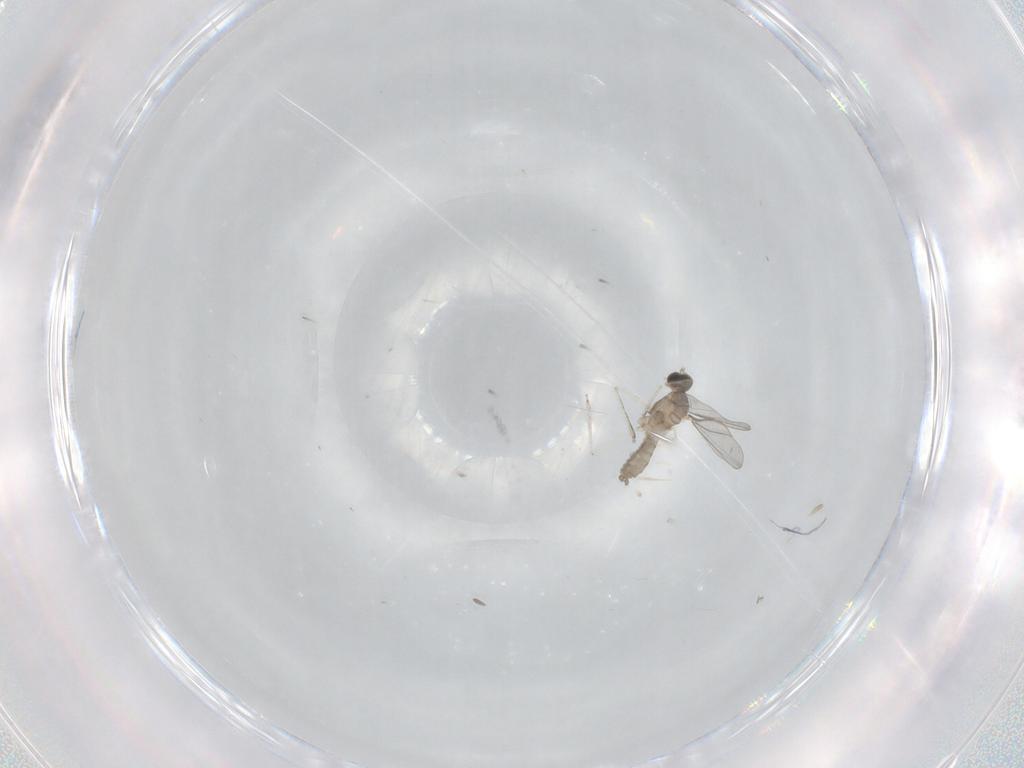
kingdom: Animalia
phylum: Arthropoda
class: Insecta
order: Diptera
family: Cecidomyiidae
